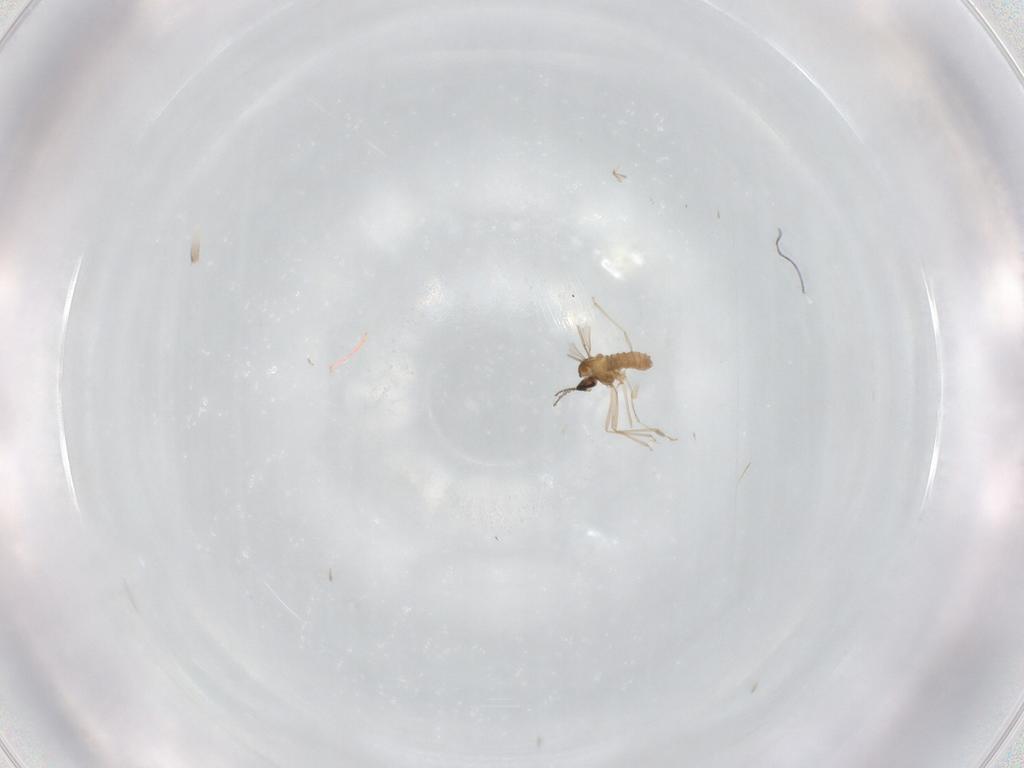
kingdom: Animalia
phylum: Arthropoda
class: Insecta
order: Diptera
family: Cecidomyiidae
